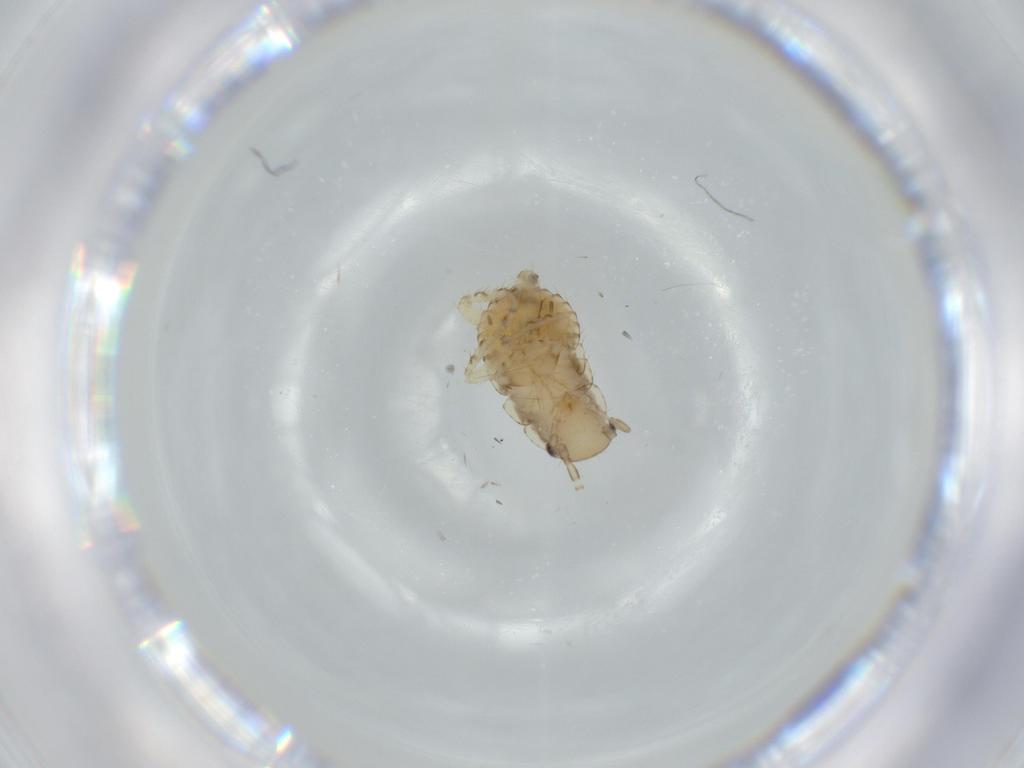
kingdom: Animalia
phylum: Arthropoda
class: Insecta
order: Blattodea
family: Ectobiidae
